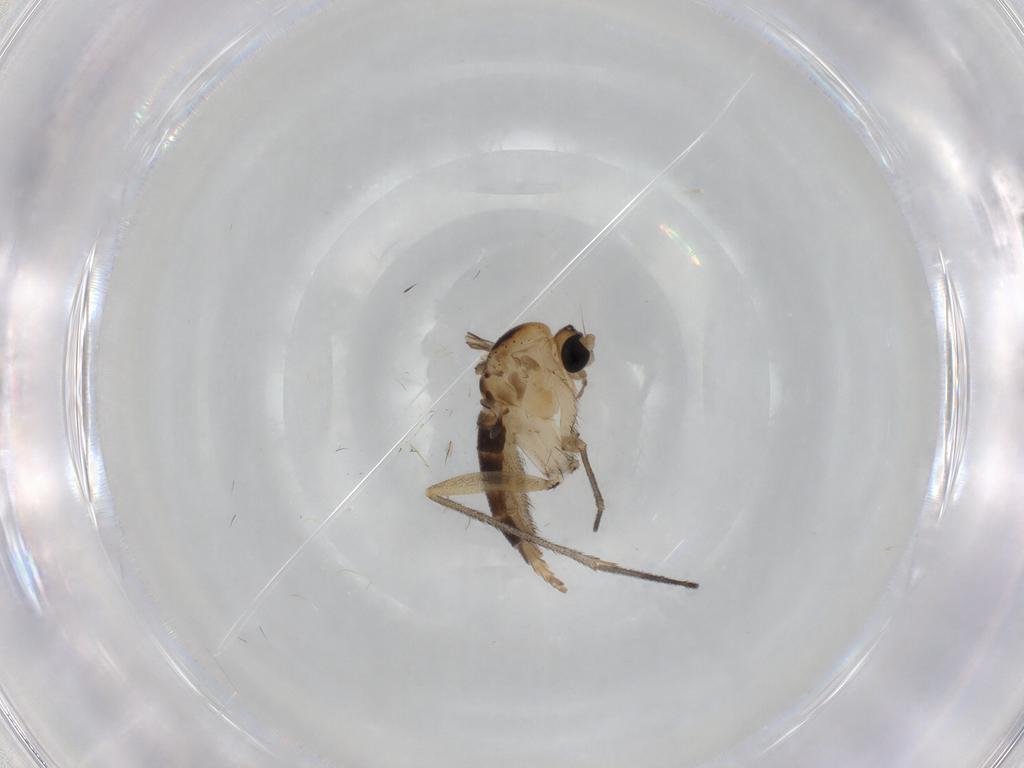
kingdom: Animalia
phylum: Arthropoda
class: Insecta
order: Diptera
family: Sciaridae
